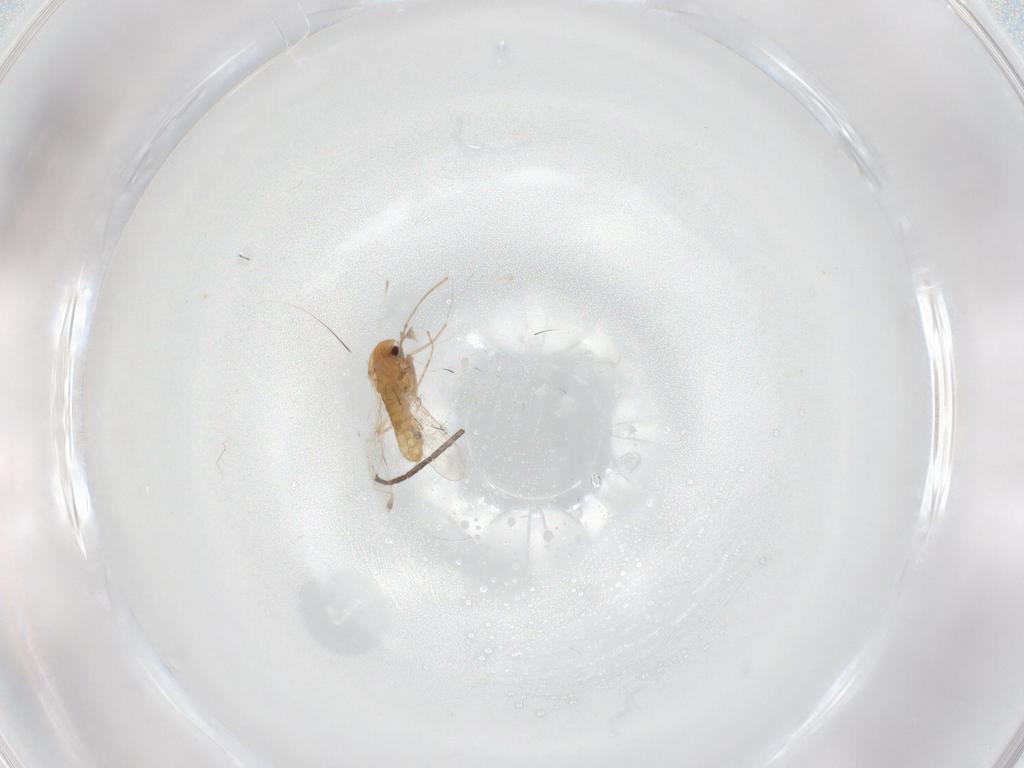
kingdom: Animalia
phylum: Arthropoda
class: Insecta
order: Diptera
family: Chironomidae
